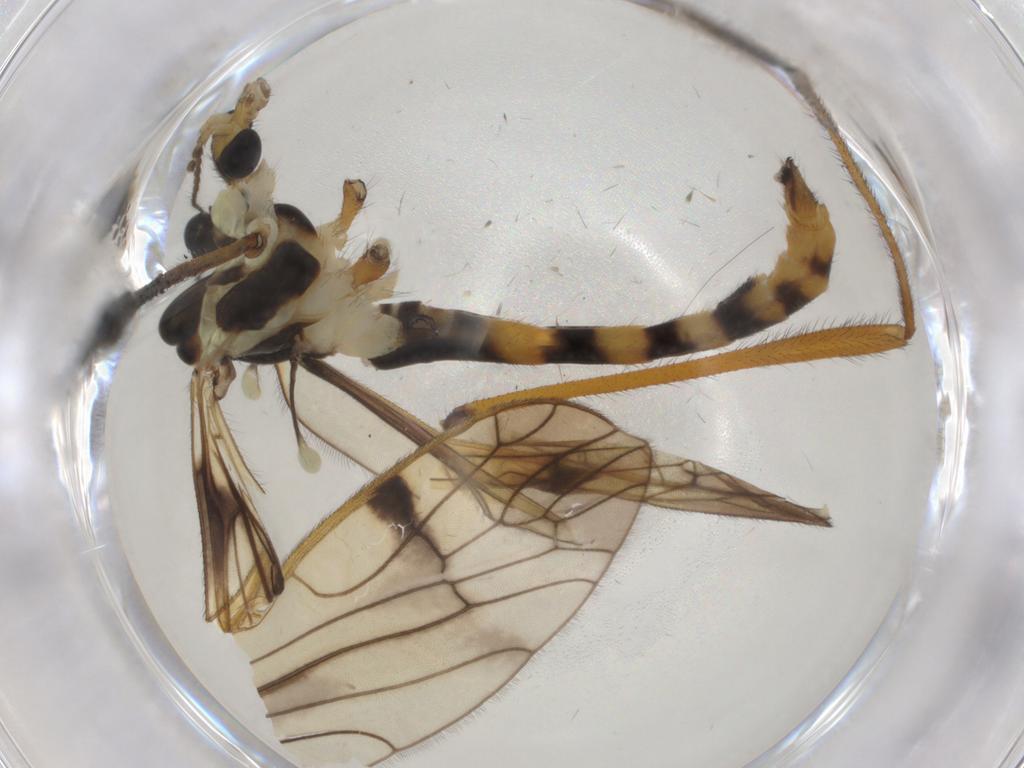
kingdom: Animalia
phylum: Arthropoda
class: Insecta
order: Diptera
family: Limoniidae
